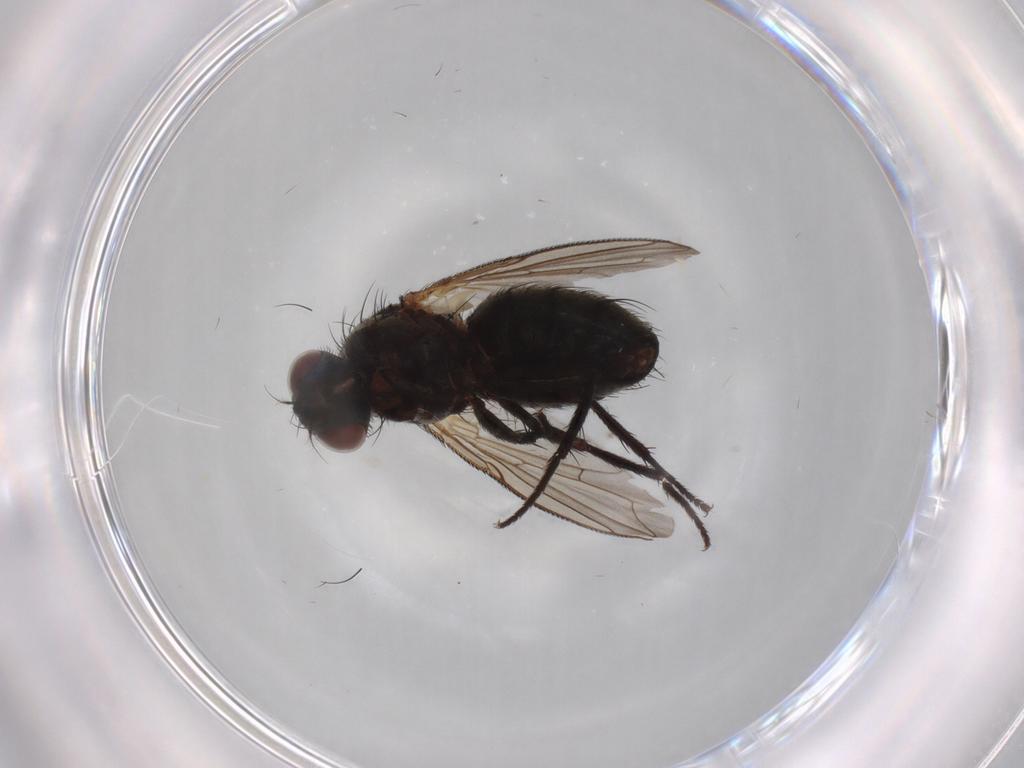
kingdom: Animalia
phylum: Arthropoda
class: Insecta
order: Diptera
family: Sarcophagidae
